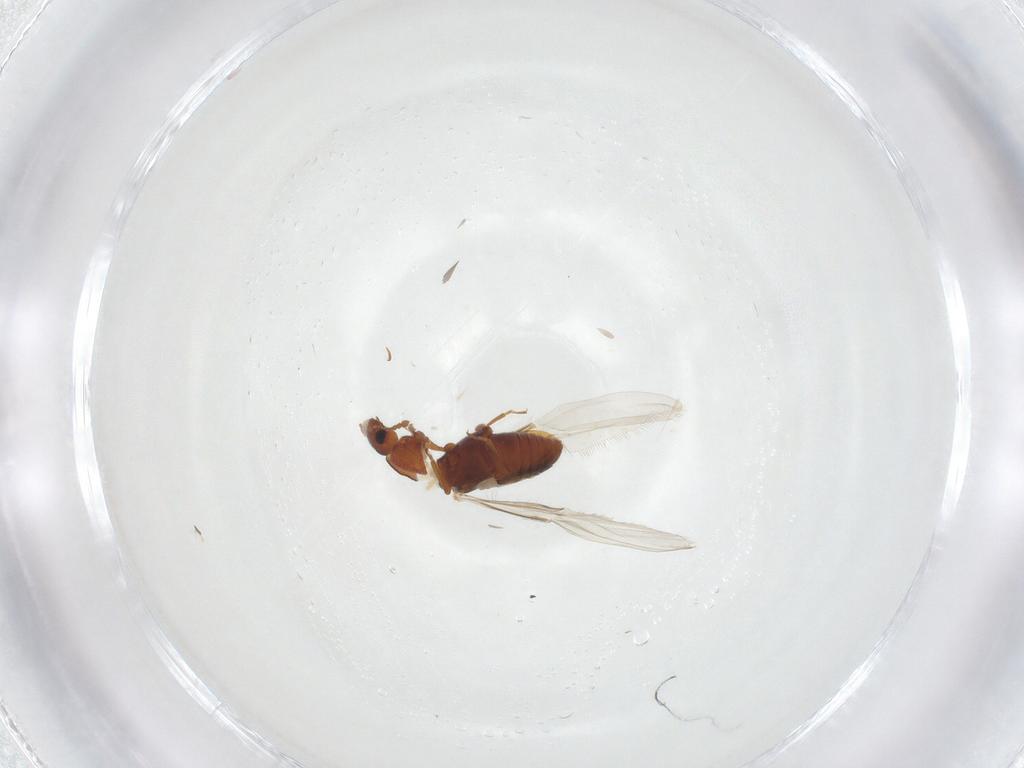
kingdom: Animalia
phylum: Arthropoda
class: Insecta
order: Coleoptera
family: Latridiidae
